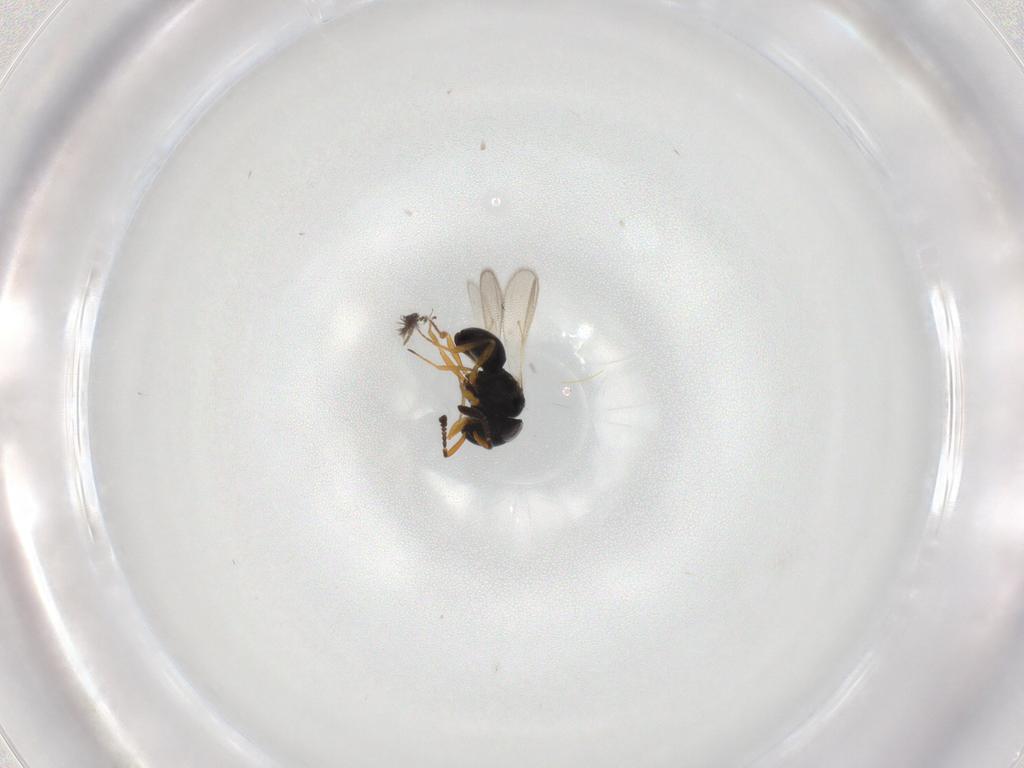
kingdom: Animalia
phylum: Arthropoda
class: Insecta
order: Hymenoptera
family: Scelionidae
